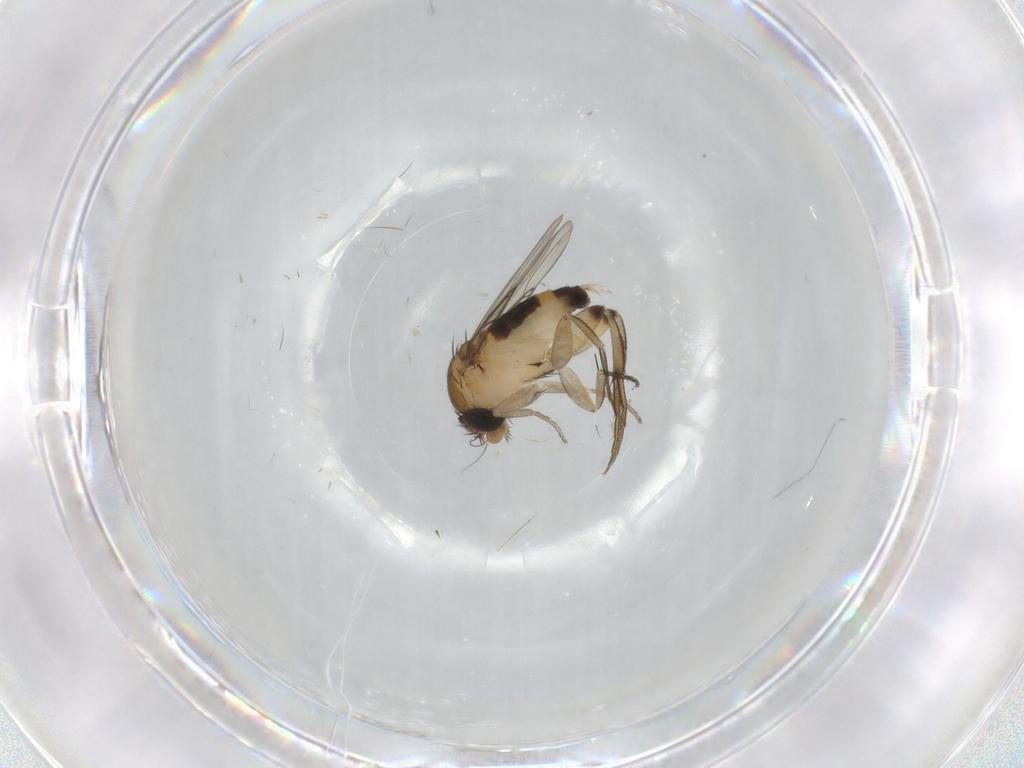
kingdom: Animalia
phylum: Arthropoda
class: Insecta
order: Diptera
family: Phoridae
